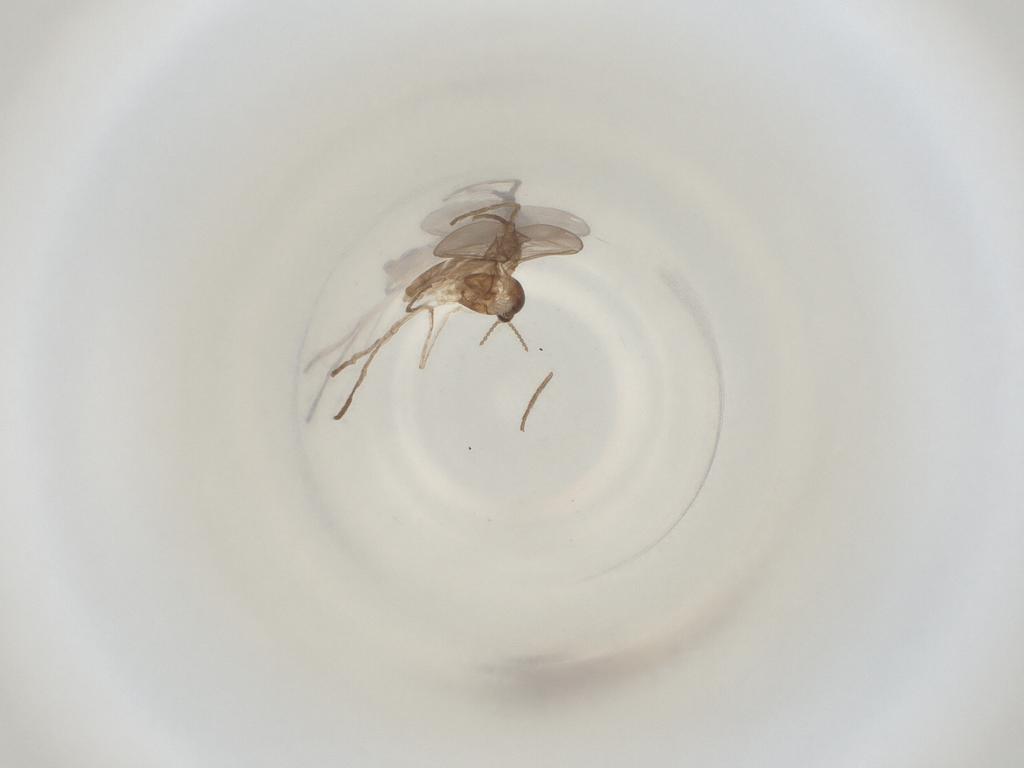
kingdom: Animalia
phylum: Arthropoda
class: Insecta
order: Diptera
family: Cecidomyiidae
